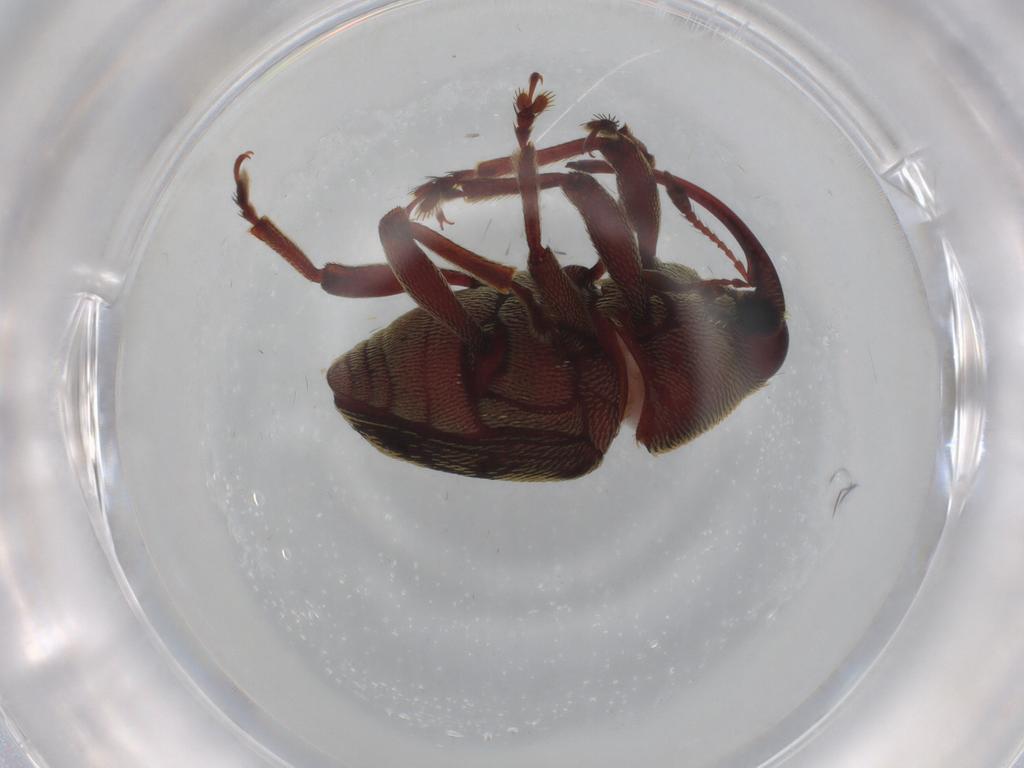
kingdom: Animalia
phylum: Arthropoda
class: Insecta
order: Coleoptera
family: Curculionidae
